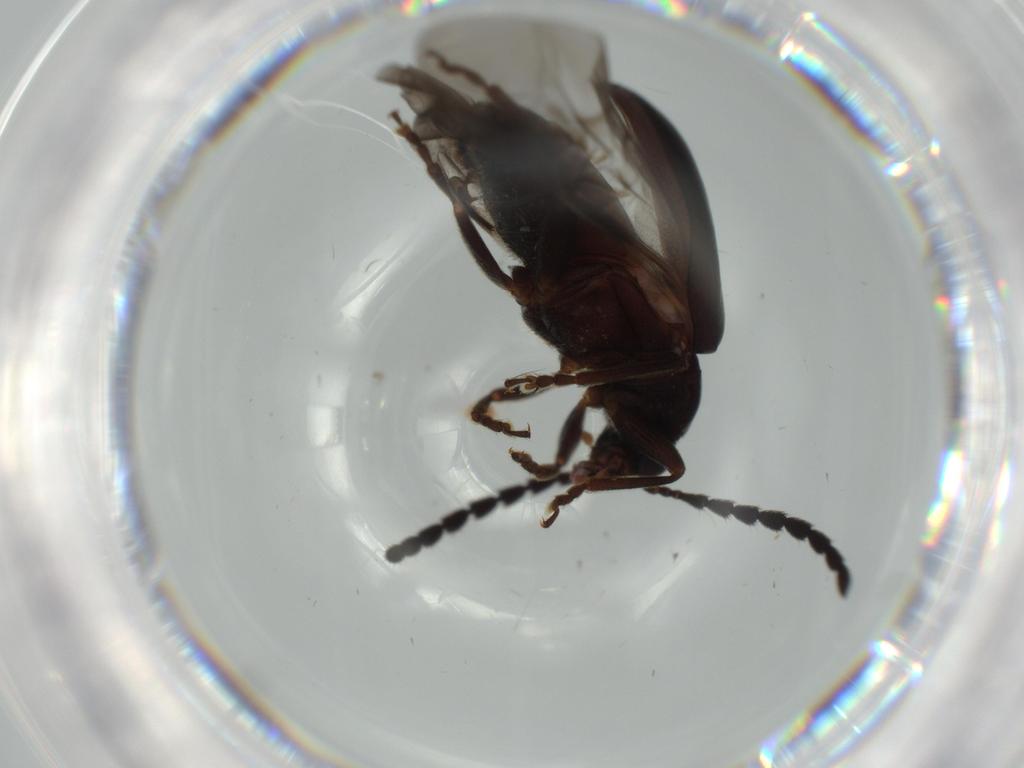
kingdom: Animalia
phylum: Arthropoda
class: Insecta
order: Coleoptera
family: Chrysomelidae
